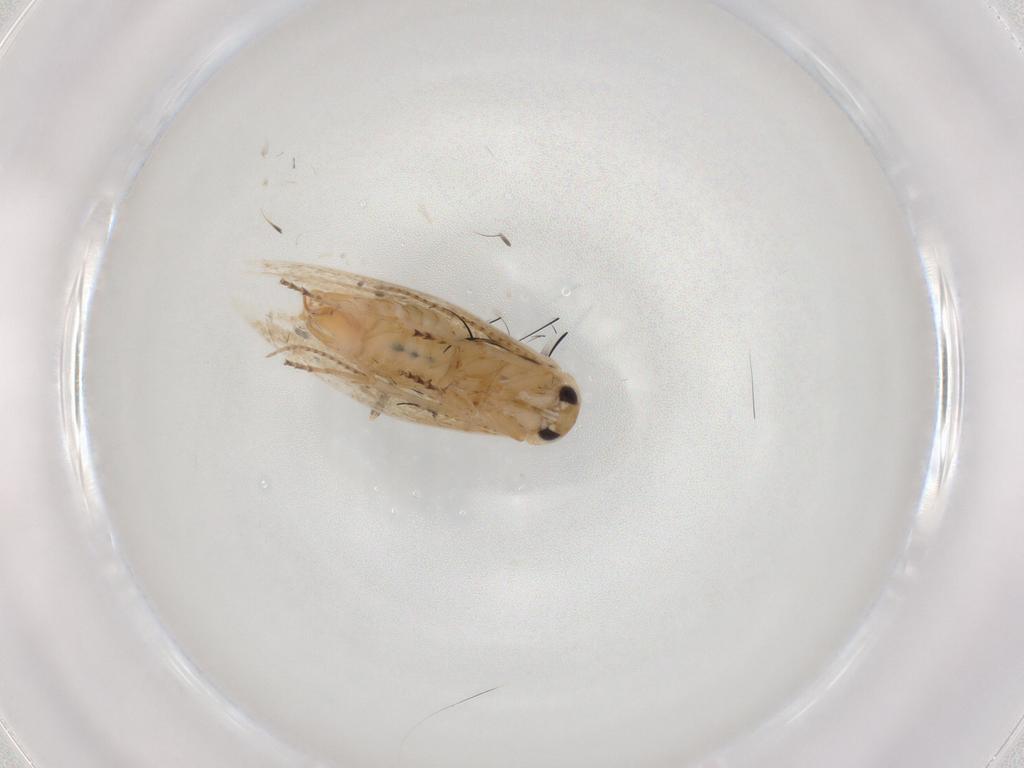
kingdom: Animalia
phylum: Arthropoda
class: Insecta
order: Lepidoptera
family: Bucculatricidae
